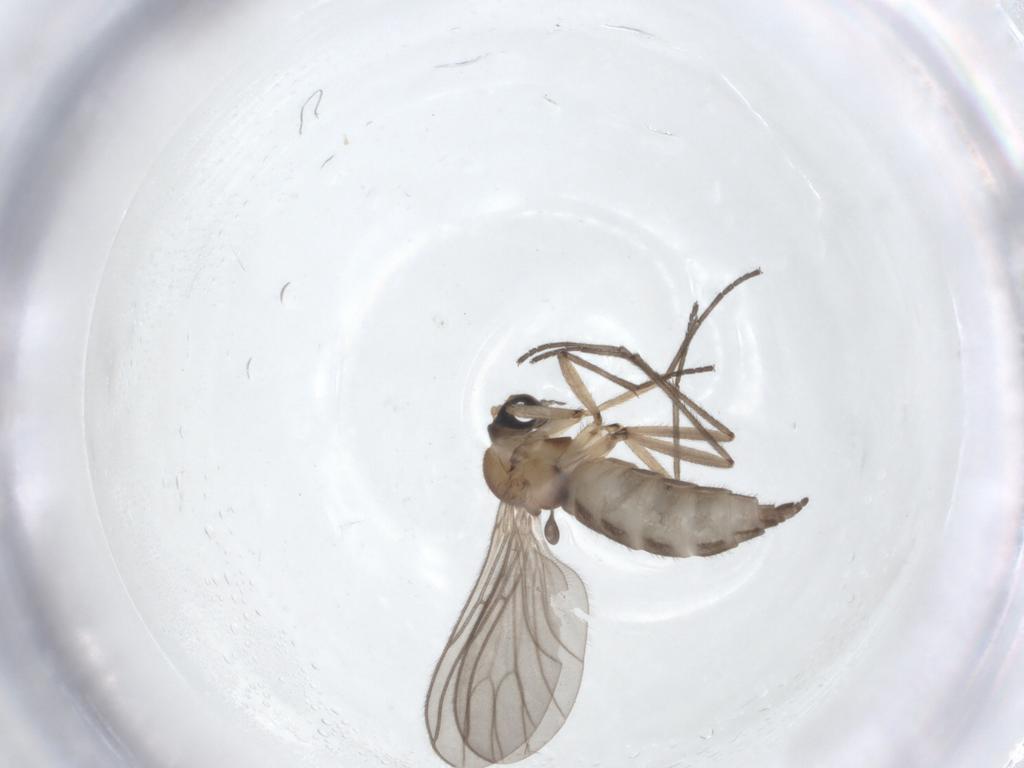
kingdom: Animalia
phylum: Arthropoda
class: Insecta
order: Diptera
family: Sciaridae
